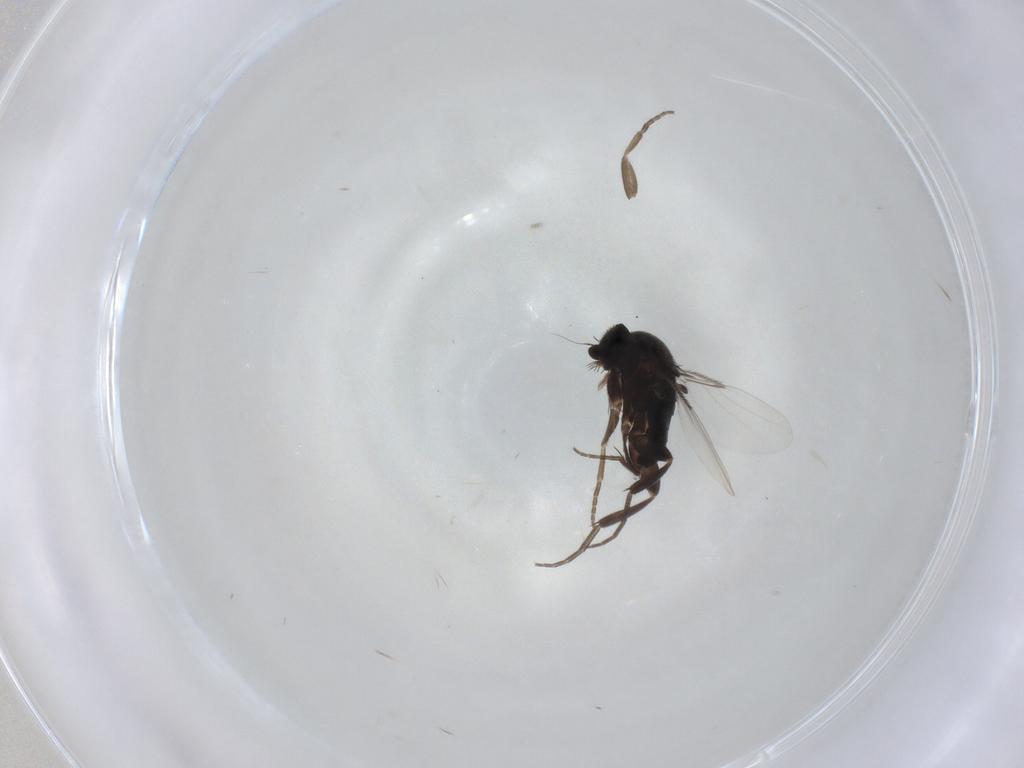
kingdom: Animalia
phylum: Arthropoda
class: Insecta
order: Diptera
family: Phoridae
